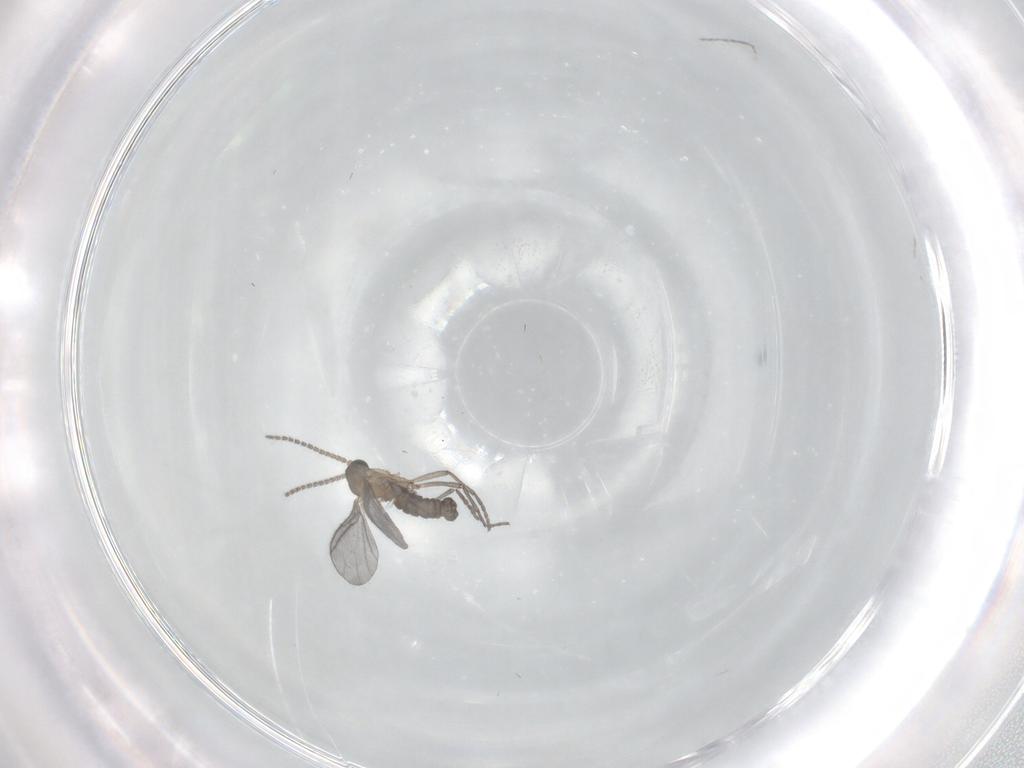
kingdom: Animalia
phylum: Arthropoda
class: Insecta
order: Diptera
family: Sciaridae
